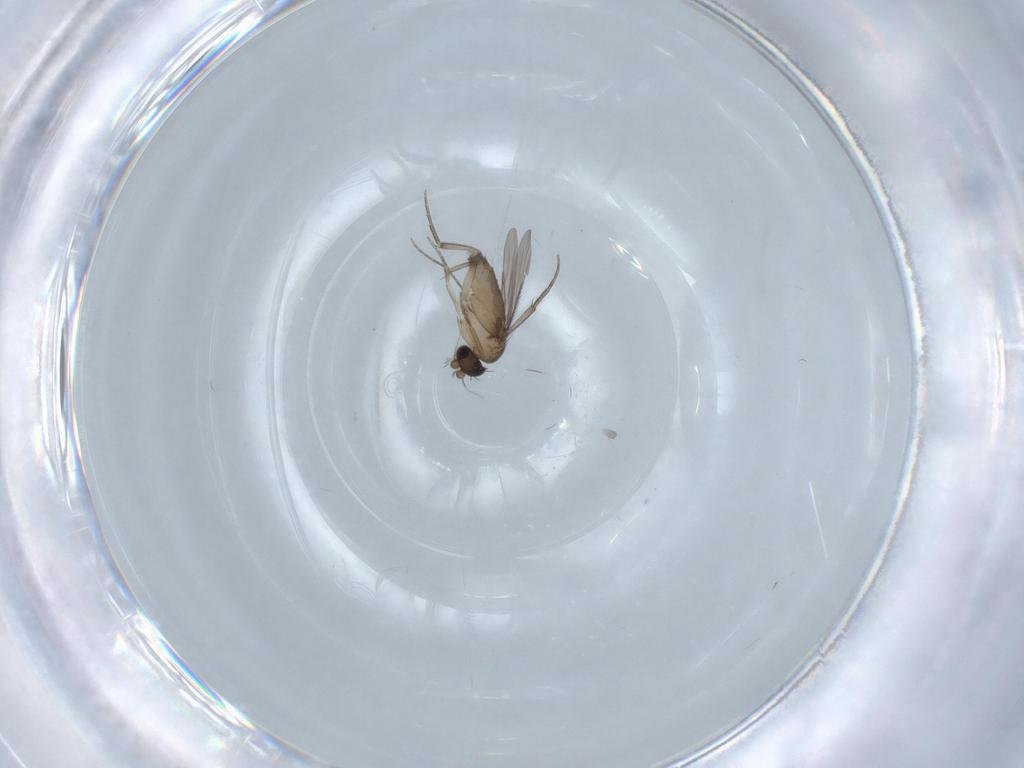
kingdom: Animalia
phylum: Arthropoda
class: Insecta
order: Diptera
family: Phoridae
